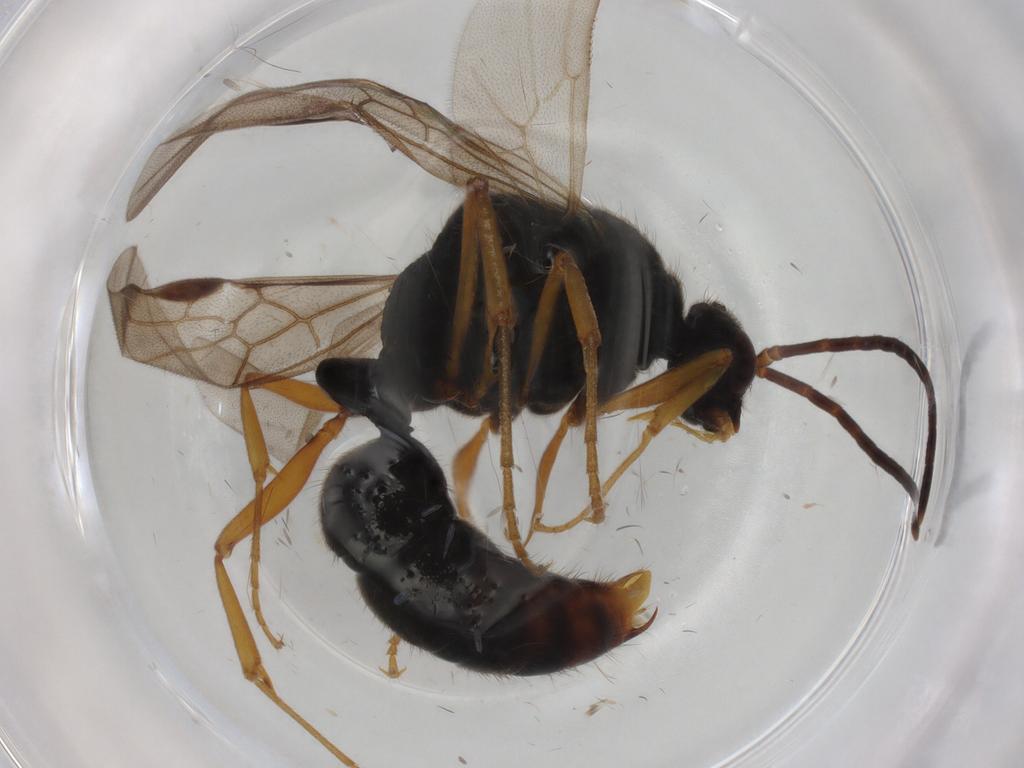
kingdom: Animalia
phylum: Arthropoda
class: Insecta
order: Hymenoptera
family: Formicidae
